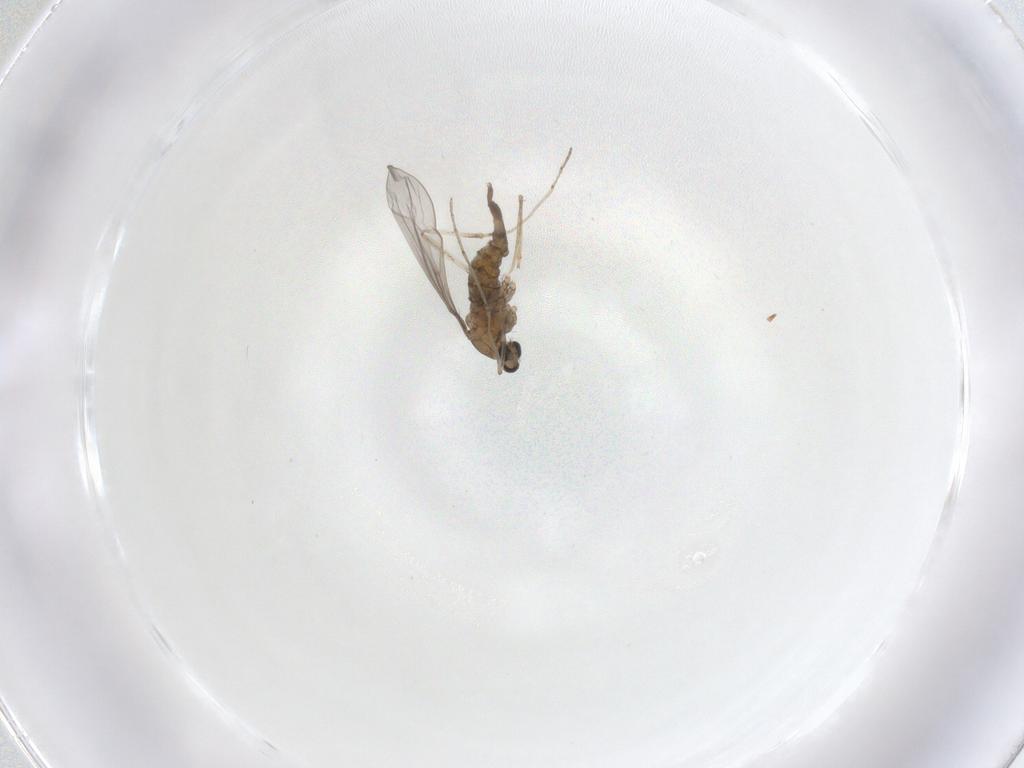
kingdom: Animalia
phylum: Arthropoda
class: Insecta
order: Diptera
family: Cecidomyiidae
